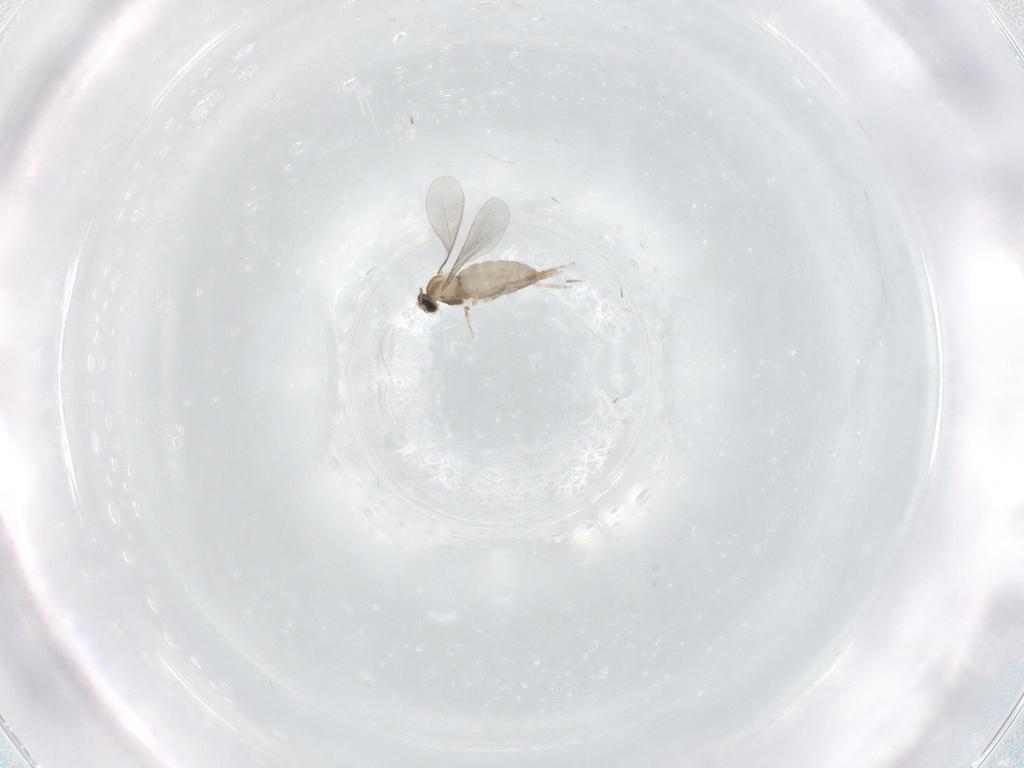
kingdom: Animalia
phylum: Arthropoda
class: Insecta
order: Diptera
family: Cecidomyiidae
